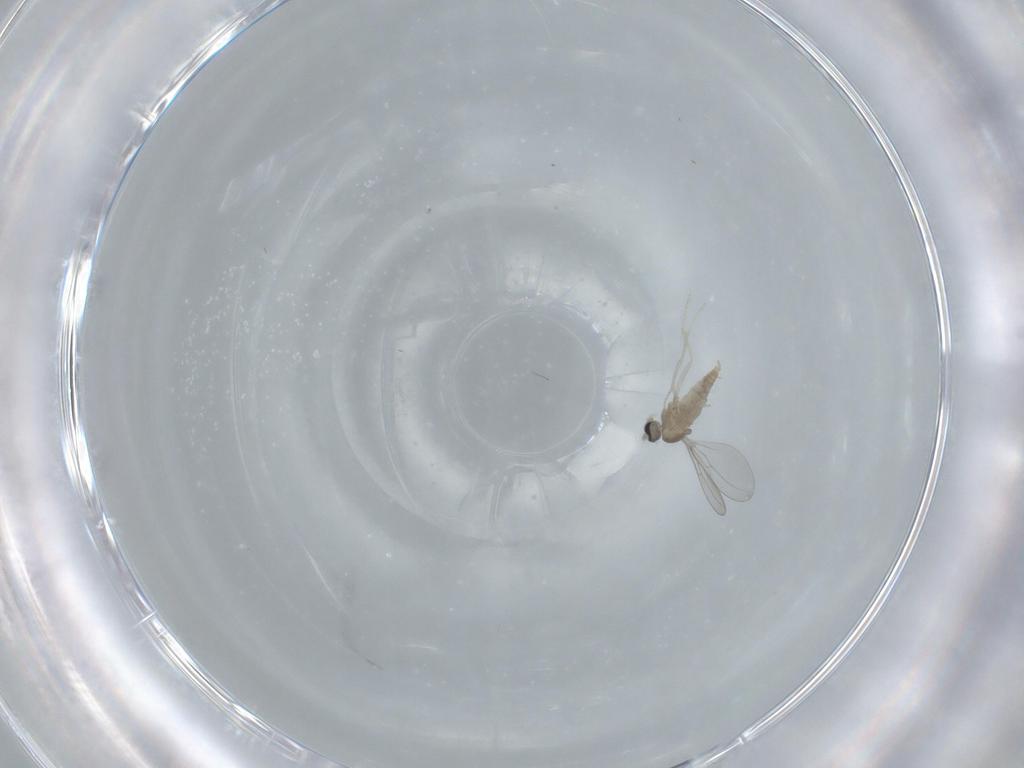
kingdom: Animalia
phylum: Arthropoda
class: Insecta
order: Diptera
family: Cecidomyiidae
